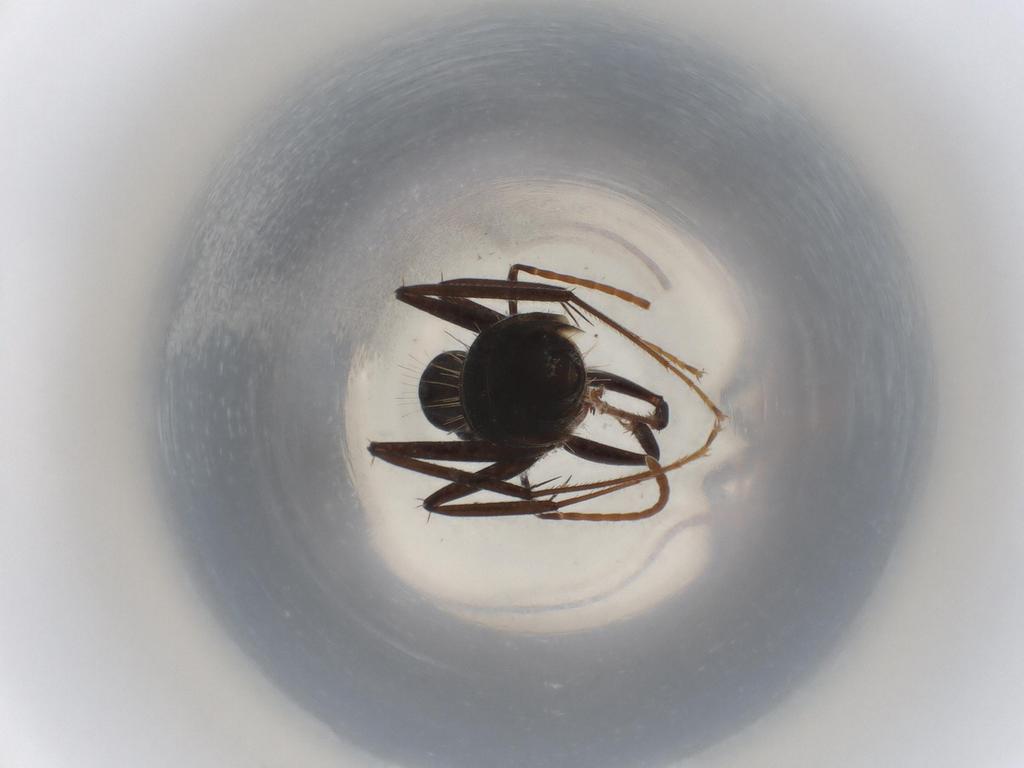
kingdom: Animalia
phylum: Arthropoda
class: Insecta
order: Hymenoptera
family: Formicidae
